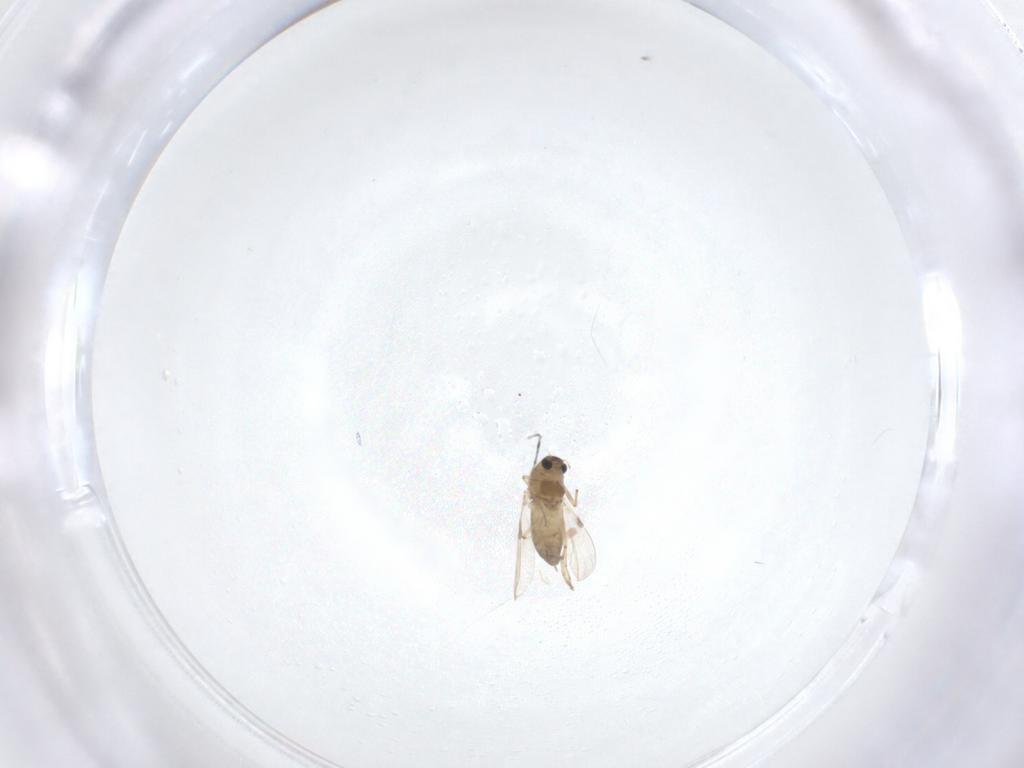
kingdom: Animalia
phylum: Arthropoda
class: Insecta
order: Diptera
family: Chironomidae
